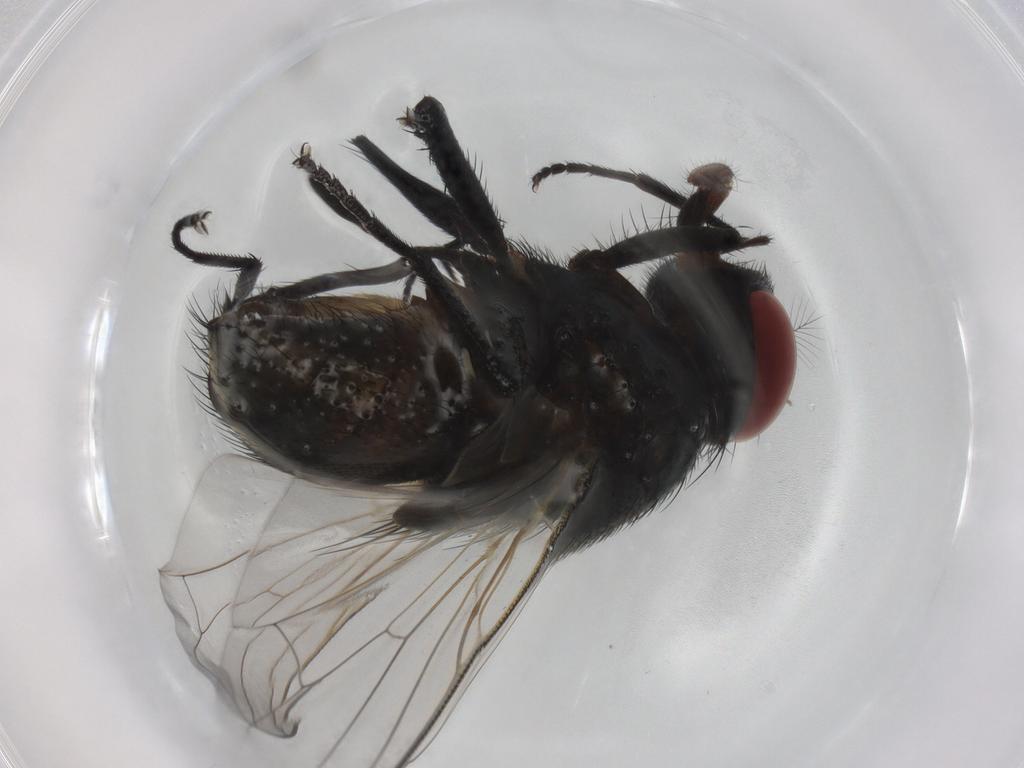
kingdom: Animalia
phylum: Arthropoda
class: Insecta
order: Diptera
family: Muscidae
